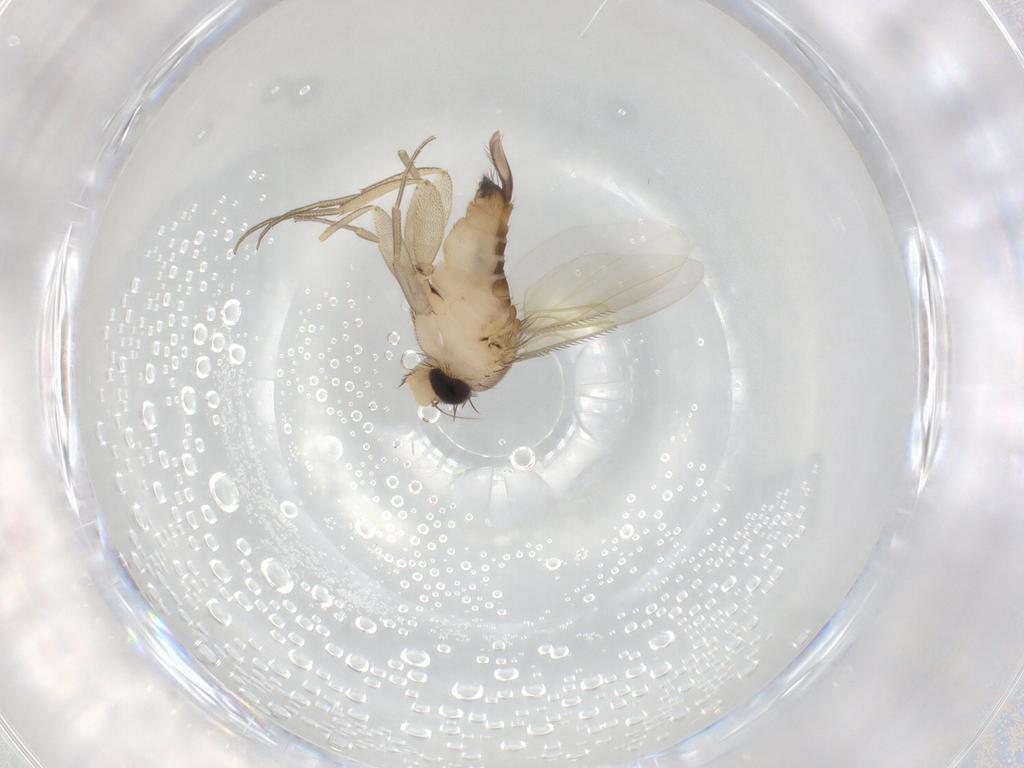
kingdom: Animalia
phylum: Arthropoda
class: Insecta
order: Diptera
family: Phoridae
